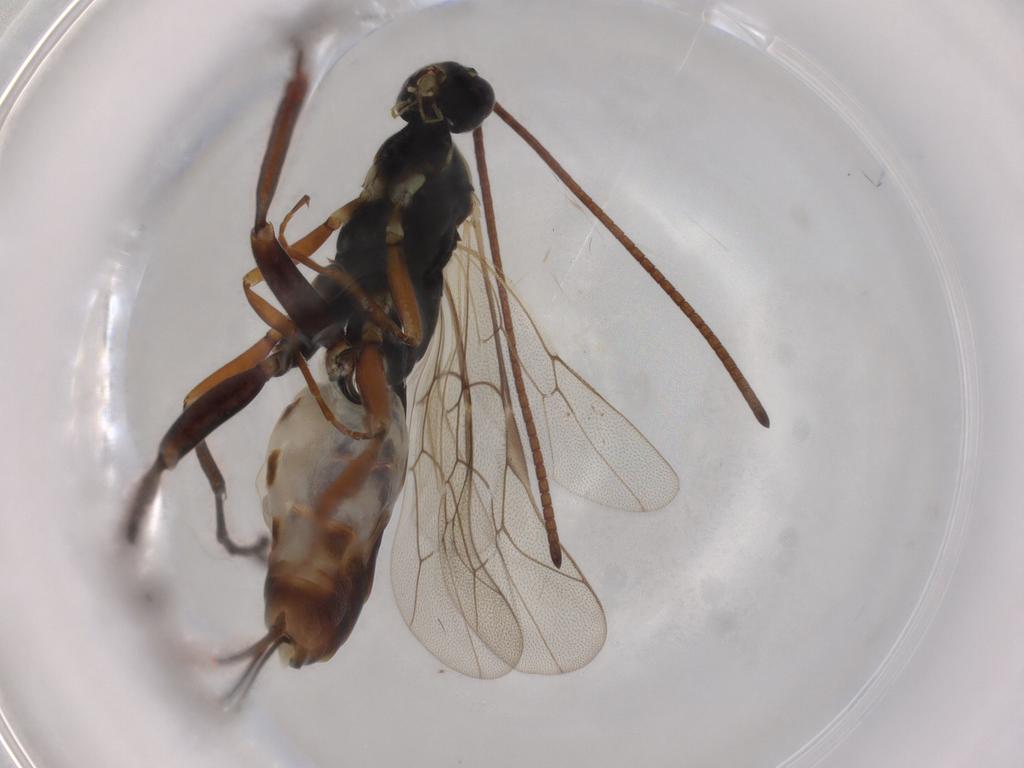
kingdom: Animalia
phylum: Arthropoda
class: Insecta
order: Hymenoptera
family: Ichneumonidae
